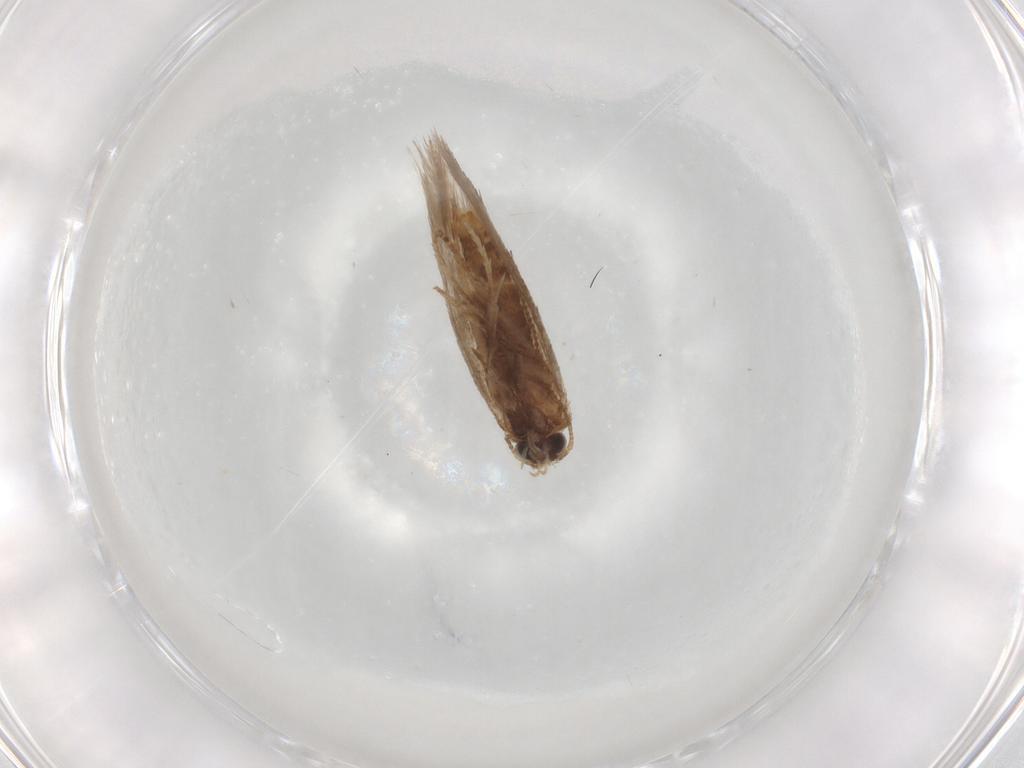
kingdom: Animalia
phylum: Arthropoda
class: Insecta
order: Lepidoptera
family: Nepticulidae
